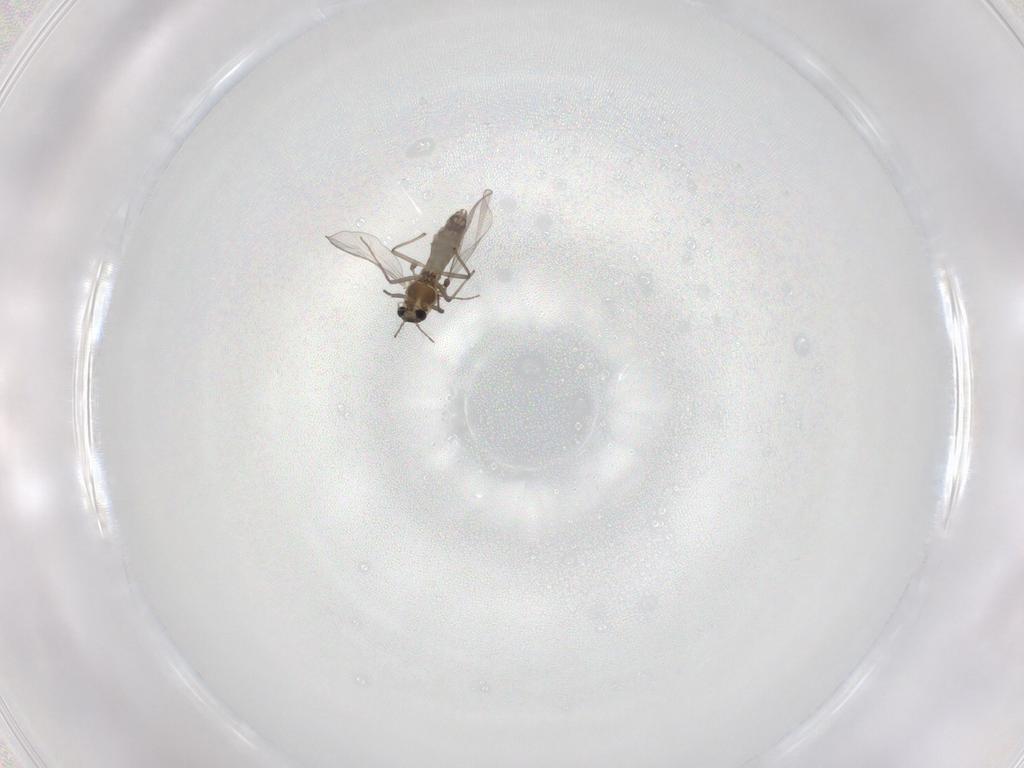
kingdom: Animalia
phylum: Arthropoda
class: Insecta
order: Diptera
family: Chironomidae
